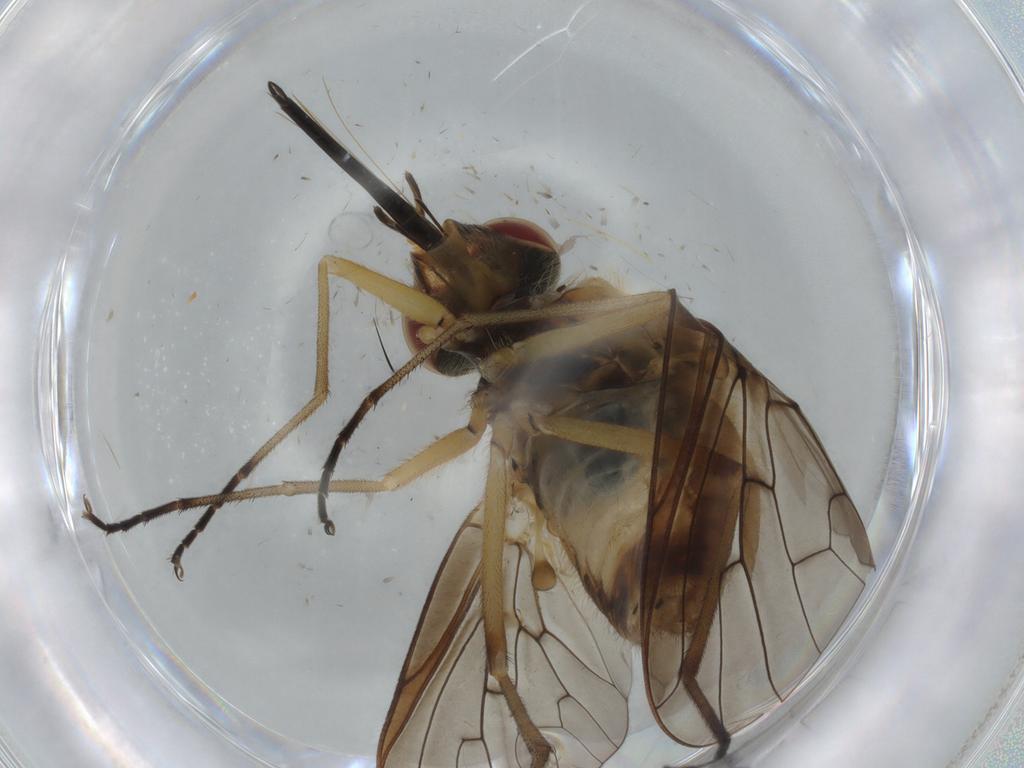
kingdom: Animalia
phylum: Arthropoda
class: Insecta
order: Diptera
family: Bombyliidae
